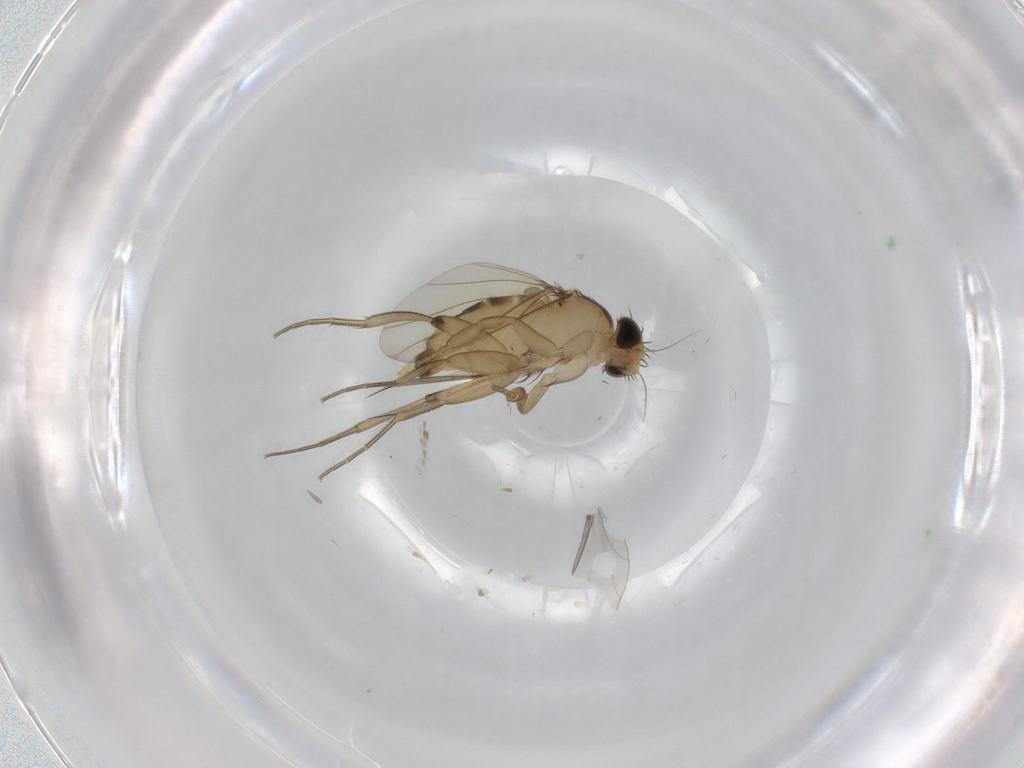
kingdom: Animalia
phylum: Arthropoda
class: Insecta
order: Diptera
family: Phoridae
